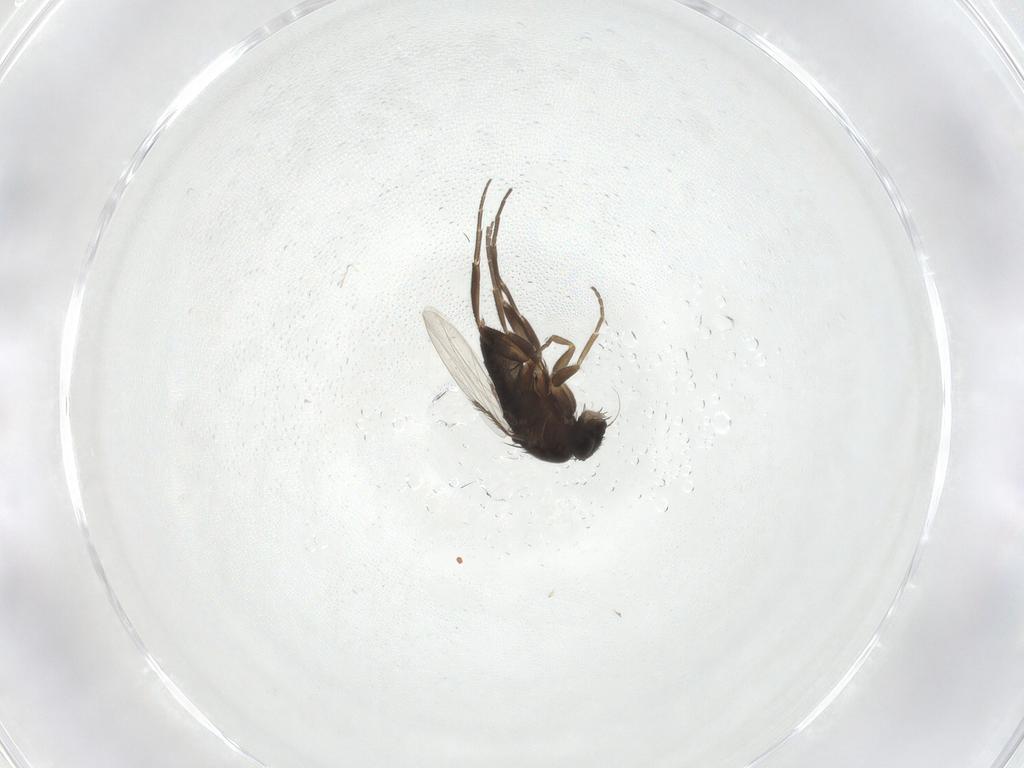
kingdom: Animalia
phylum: Arthropoda
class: Insecta
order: Diptera
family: Phoridae
